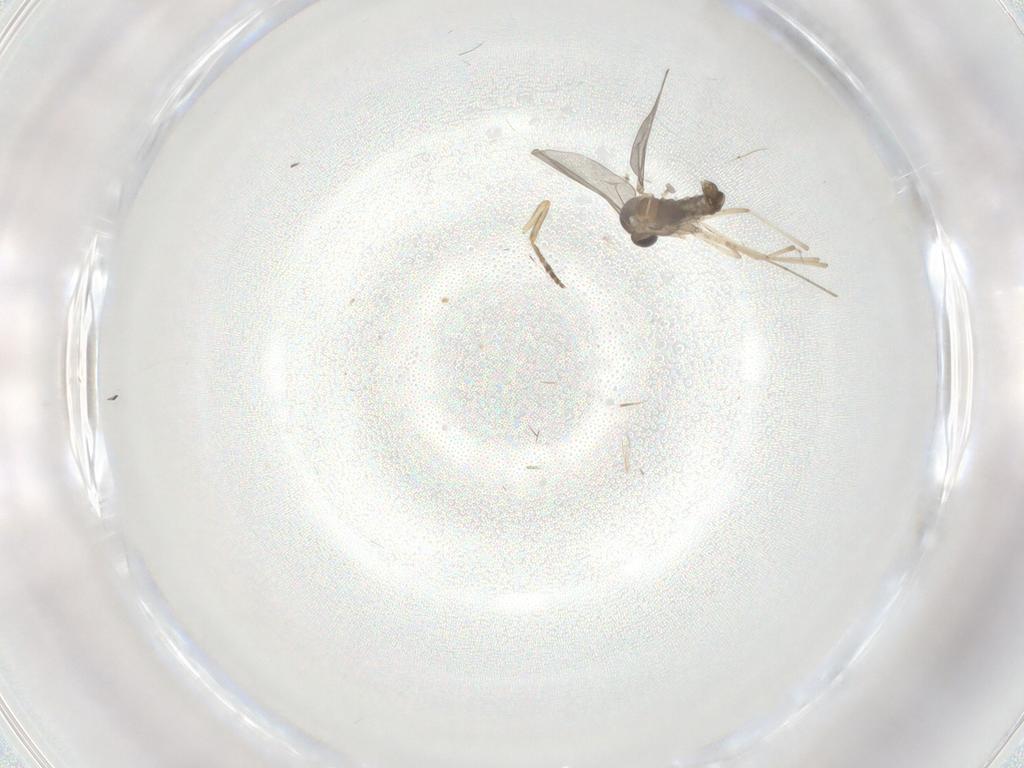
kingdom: Animalia
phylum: Arthropoda
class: Insecta
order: Diptera
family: Cecidomyiidae
